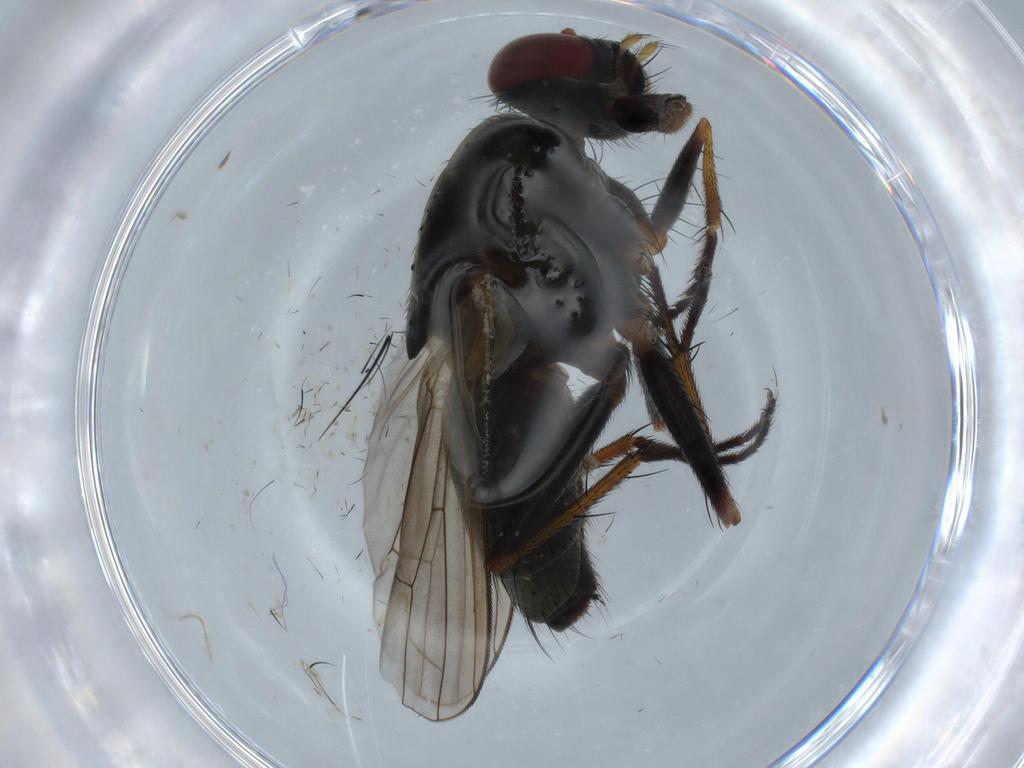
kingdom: Animalia
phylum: Arthropoda
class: Insecta
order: Diptera
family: Muscidae
